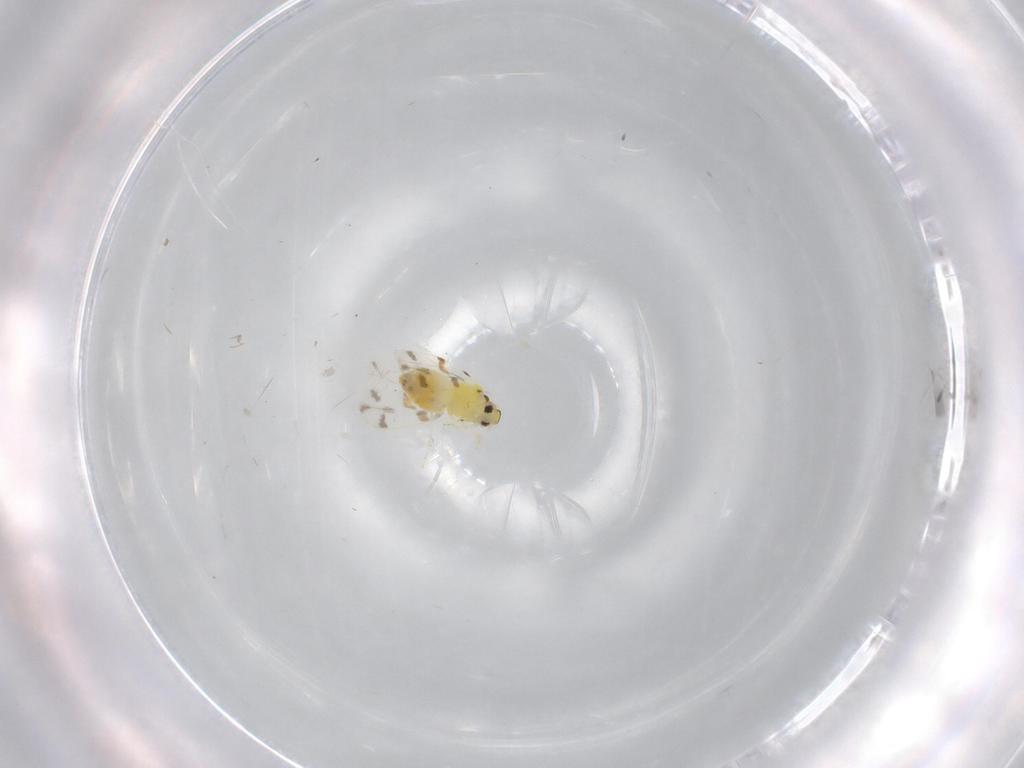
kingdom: Animalia
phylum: Arthropoda
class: Insecta
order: Hemiptera
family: Aleyrodidae
